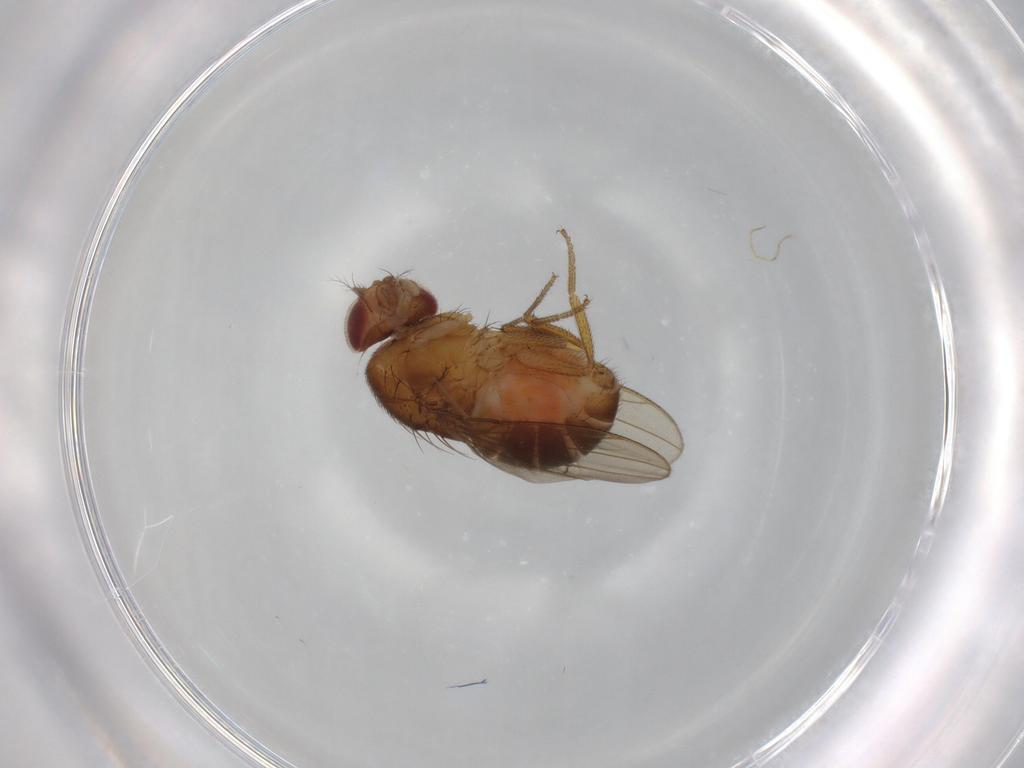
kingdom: Animalia
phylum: Arthropoda
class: Insecta
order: Diptera
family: Drosophilidae
